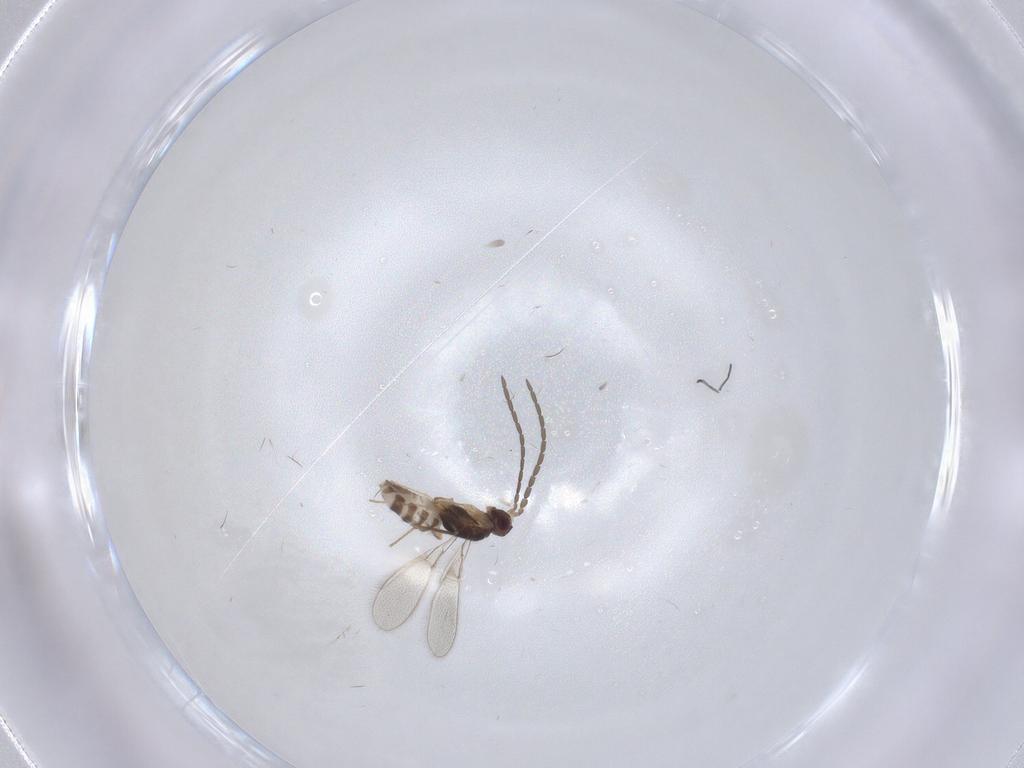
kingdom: Animalia
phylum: Arthropoda
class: Insecta
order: Hymenoptera
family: Mymaridae
